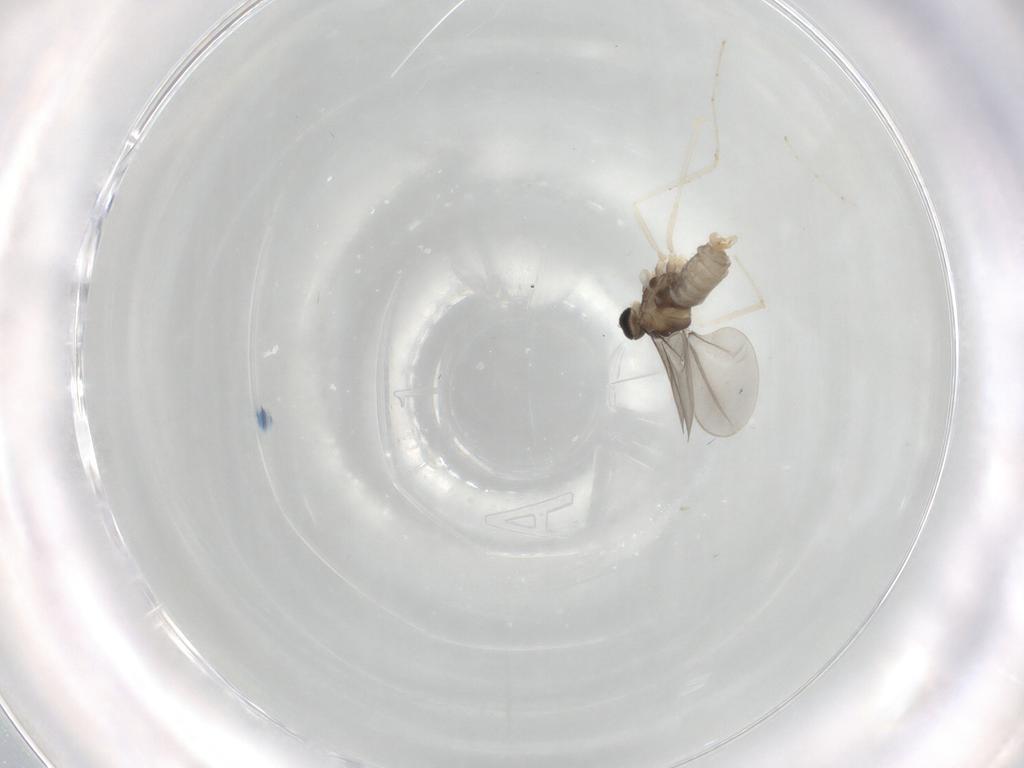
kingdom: Animalia
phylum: Arthropoda
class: Insecta
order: Diptera
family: Cecidomyiidae
